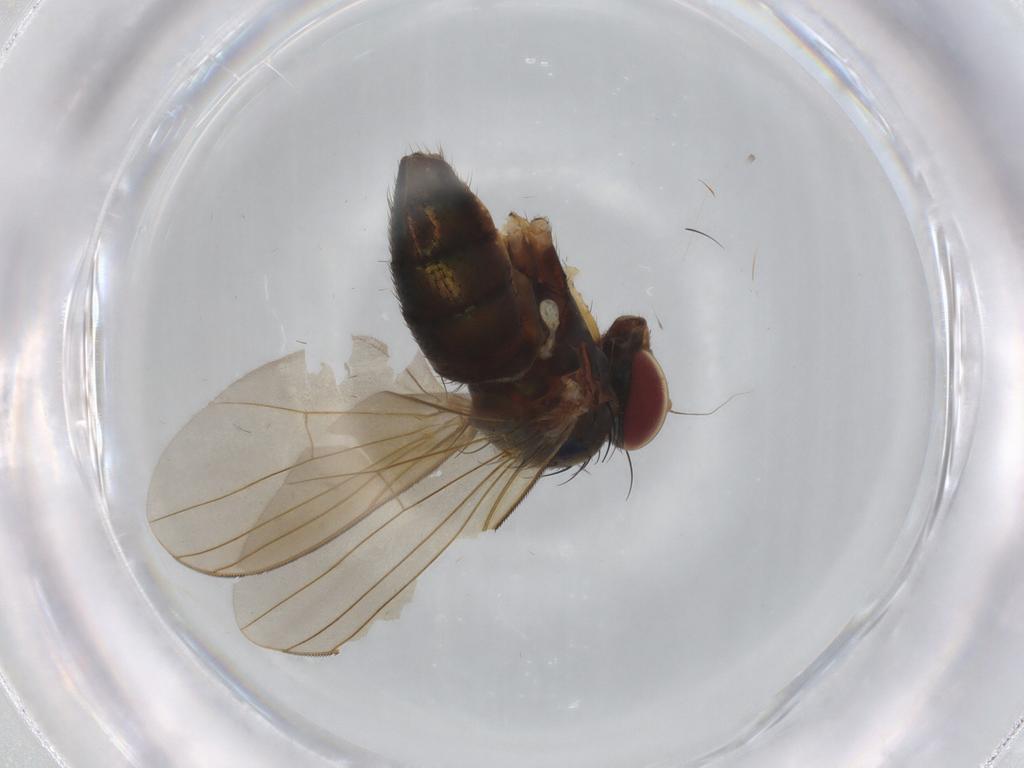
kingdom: Animalia
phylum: Arthropoda
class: Insecta
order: Diptera
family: Dolichopodidae
